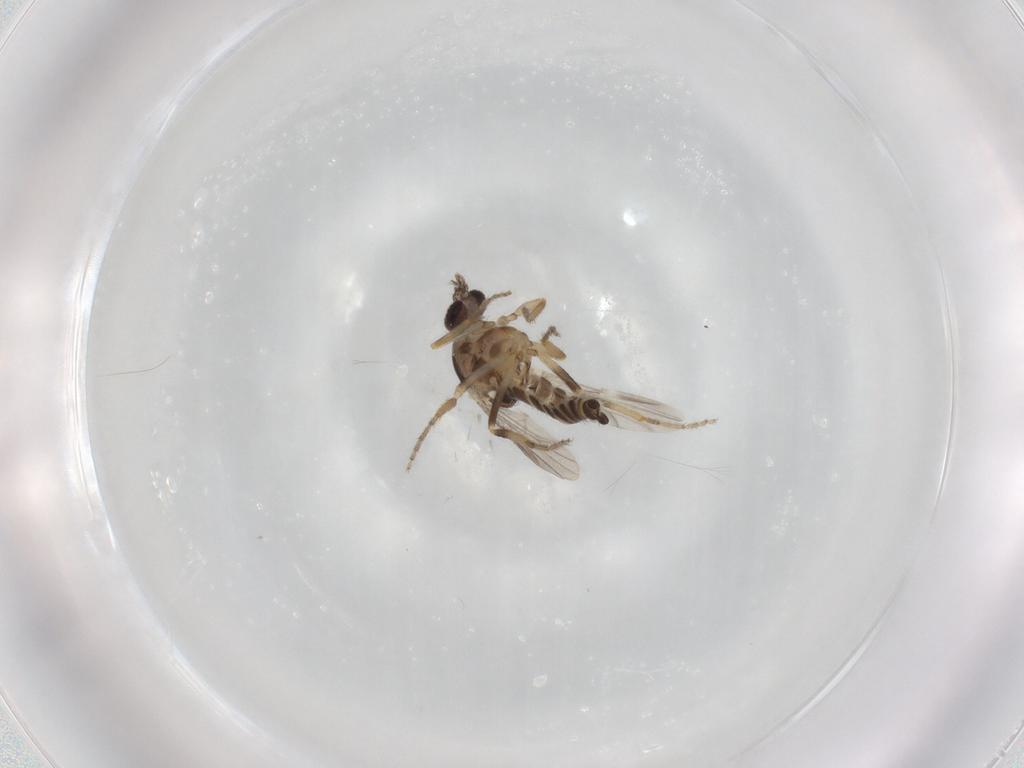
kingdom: Animalia
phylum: Arthropoda
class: Insecta
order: Diptera
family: Ceratopogonidae
